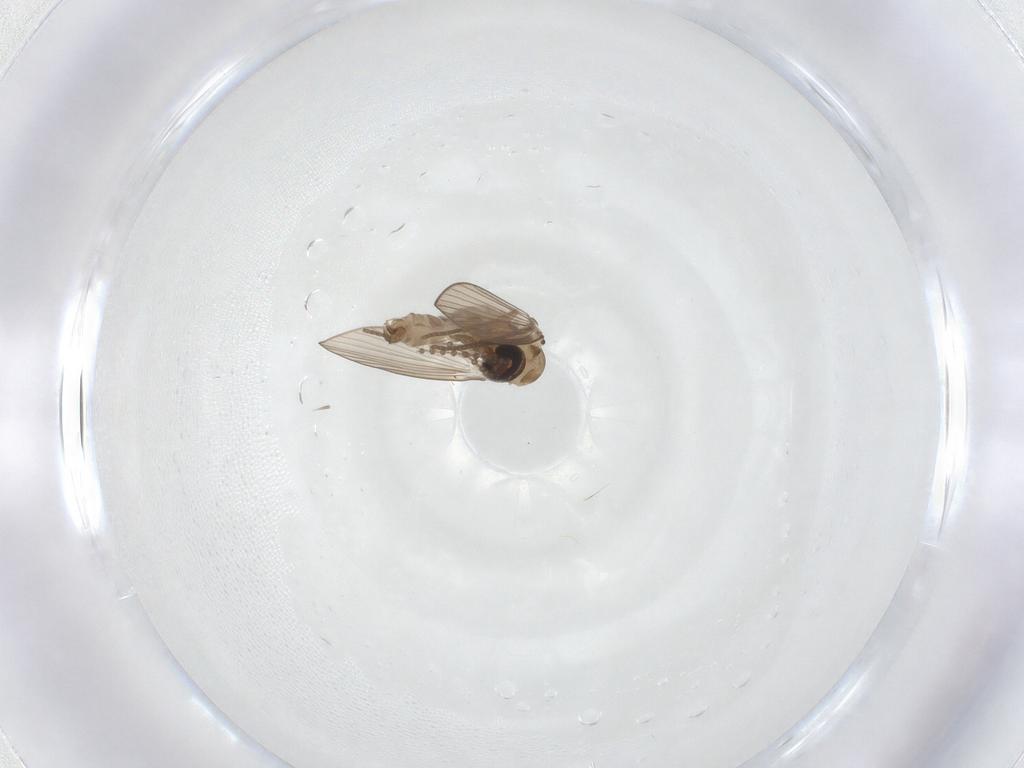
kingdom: Animalia
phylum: Arthropoda
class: Insecta
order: Diptera
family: Psychodidae
